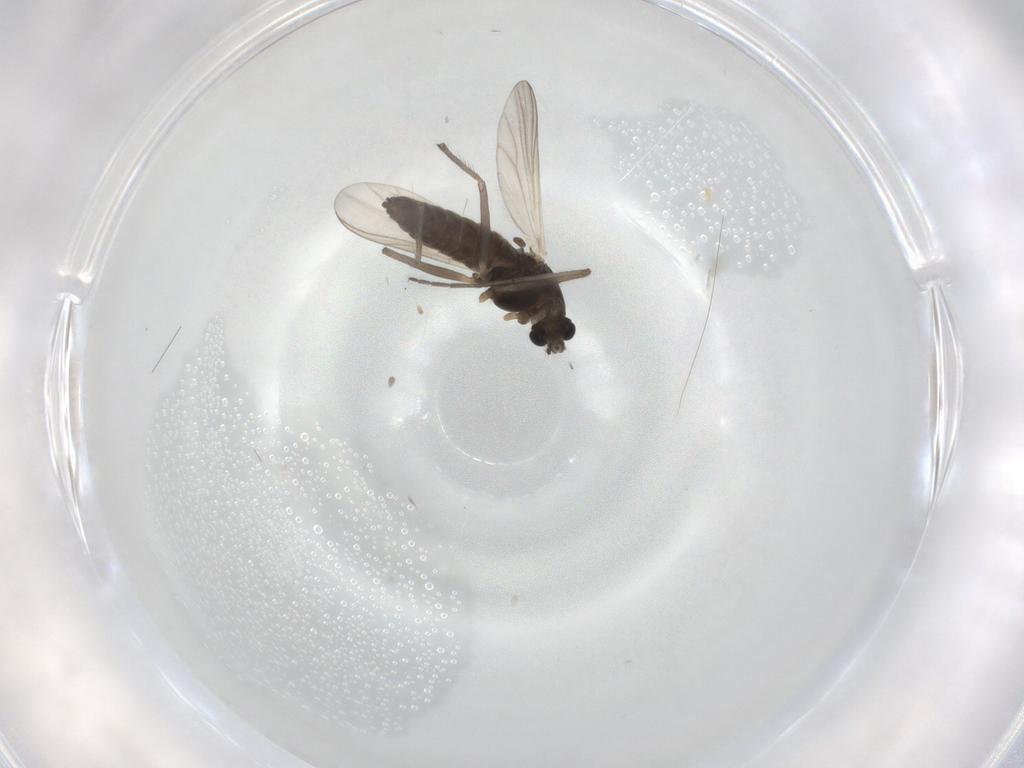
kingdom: Animalia
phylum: Arthropoda
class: Insecta
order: Diptera
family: Chironomidae
